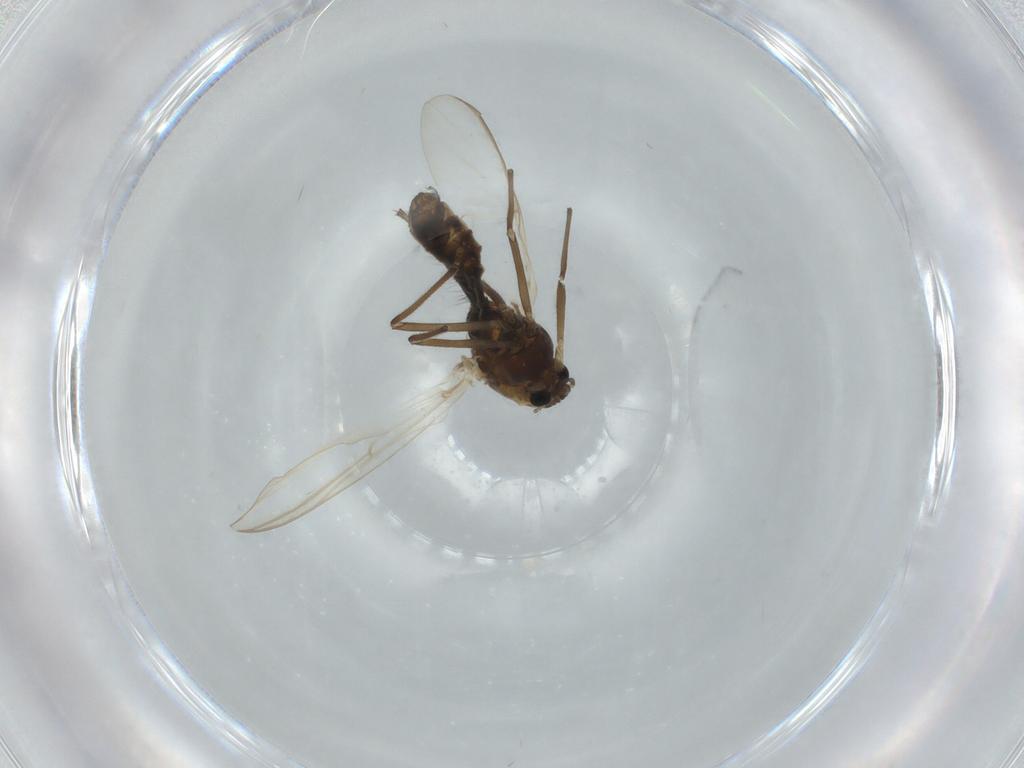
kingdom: Animalia
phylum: Arthropoda
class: Insecta
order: Diptera
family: Chironomidae
